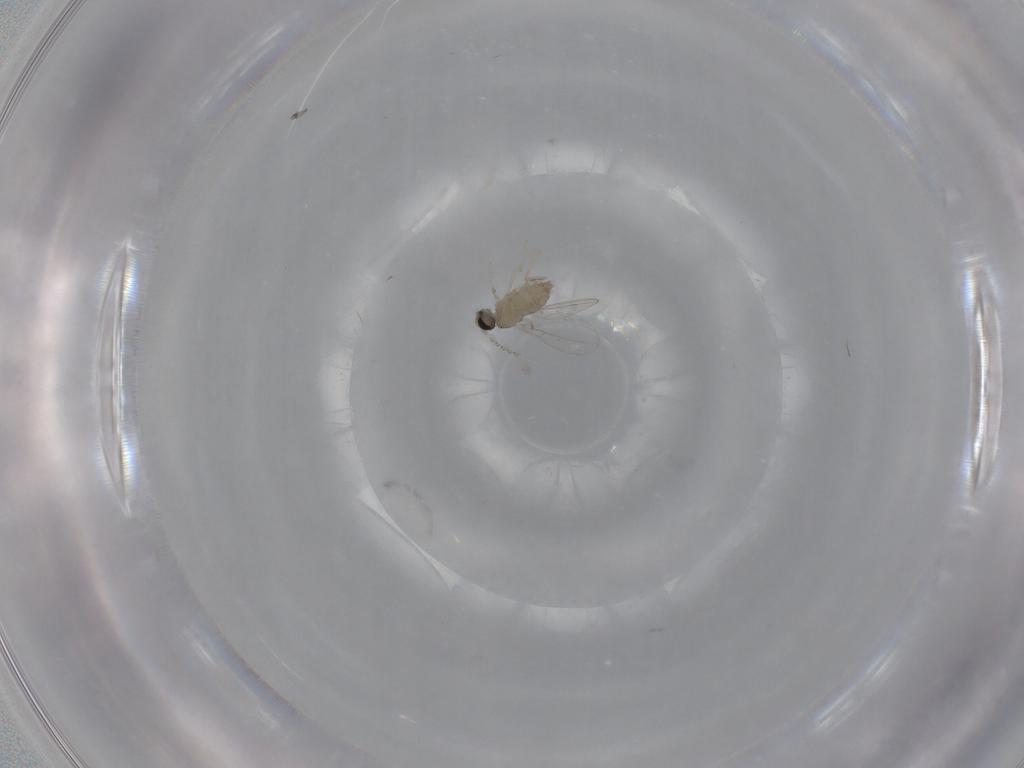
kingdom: Animalia
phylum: Arthropoda
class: Insecta
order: Diptera
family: Cecidomyiidae
